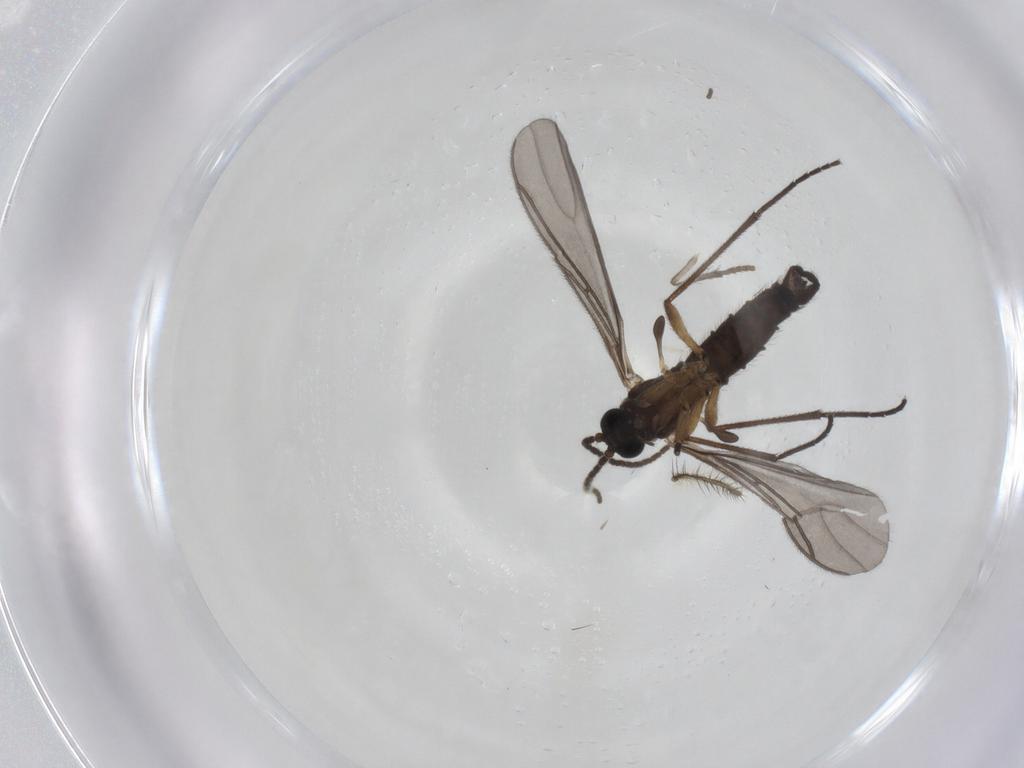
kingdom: Animalia
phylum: Arthropoda
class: Insecta
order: Diptera
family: Sciaridae
